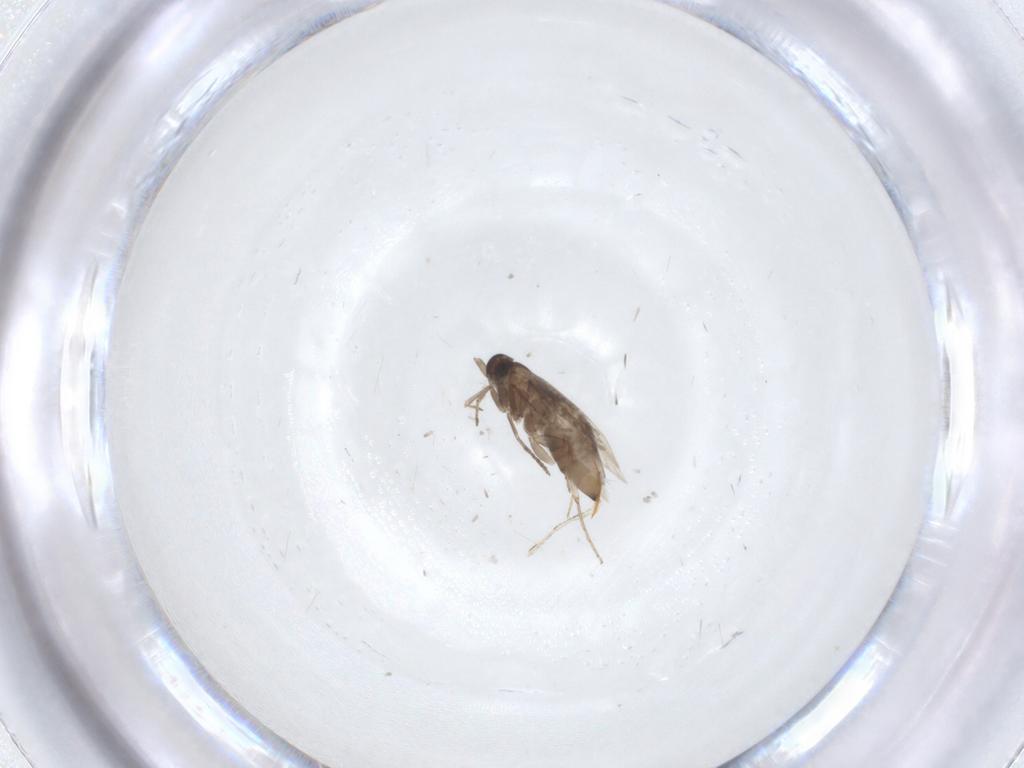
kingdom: Animalia
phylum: Arthropoda
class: Insecta
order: Lepidoptera
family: Heliozelidae
